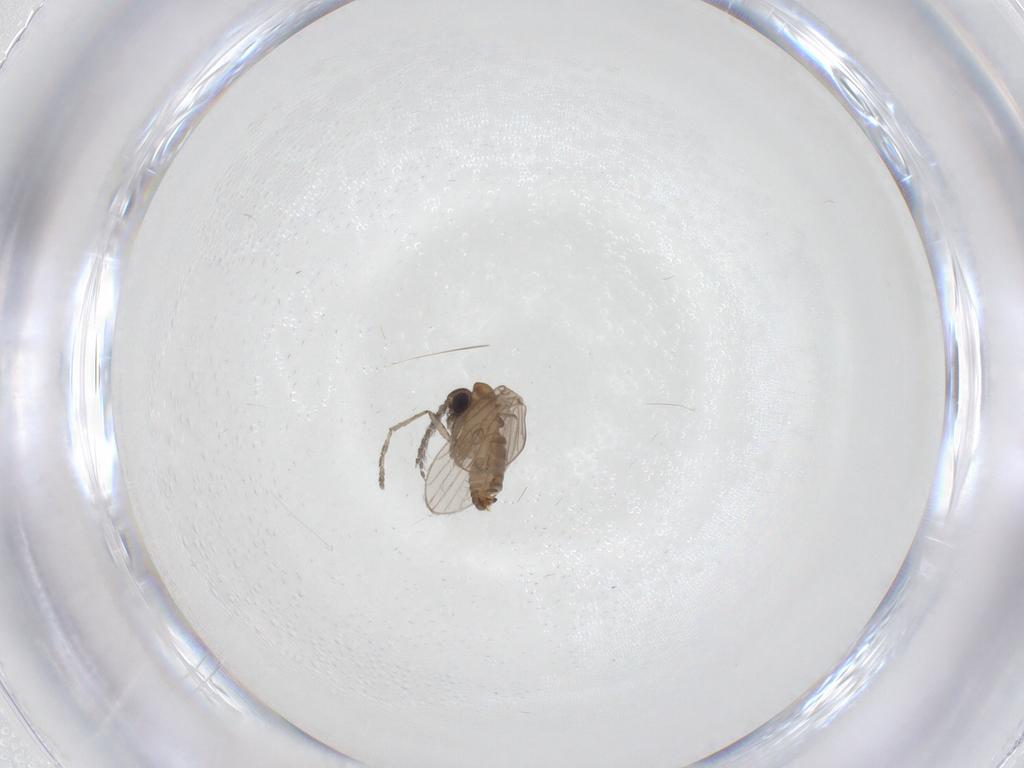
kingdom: Animalia
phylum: Arthropoda
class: Insecta
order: Diptera
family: Psychodidae
